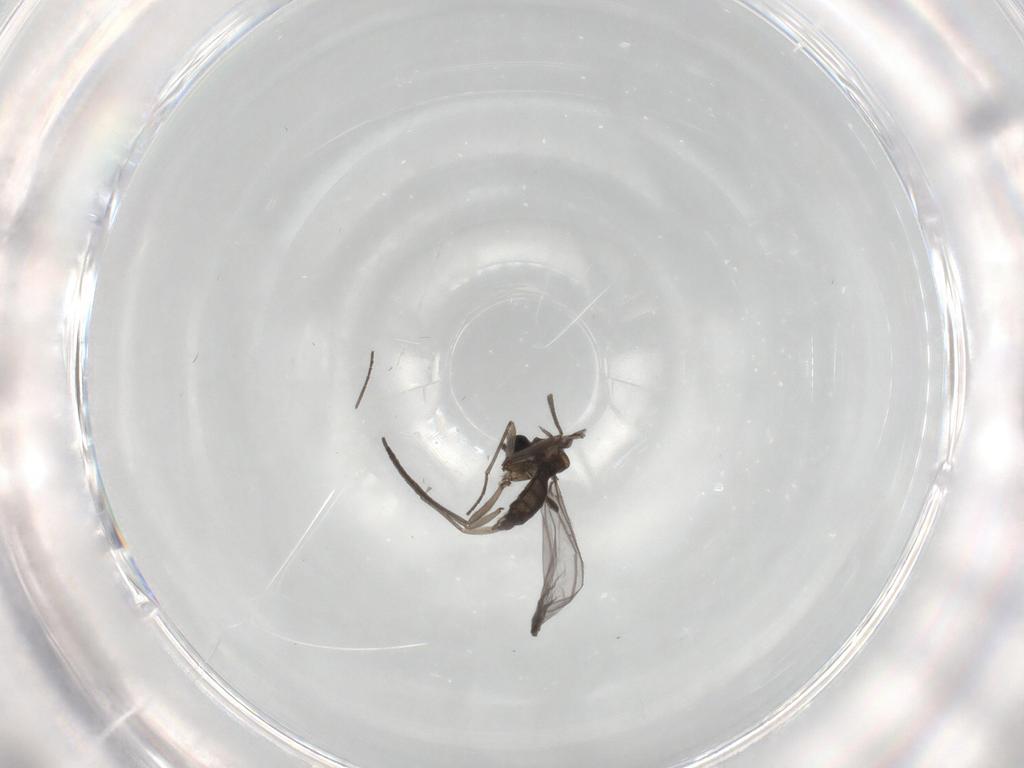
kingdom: Animalia
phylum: Arthropoda
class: Insecta
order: Diptera
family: Sciaridae
